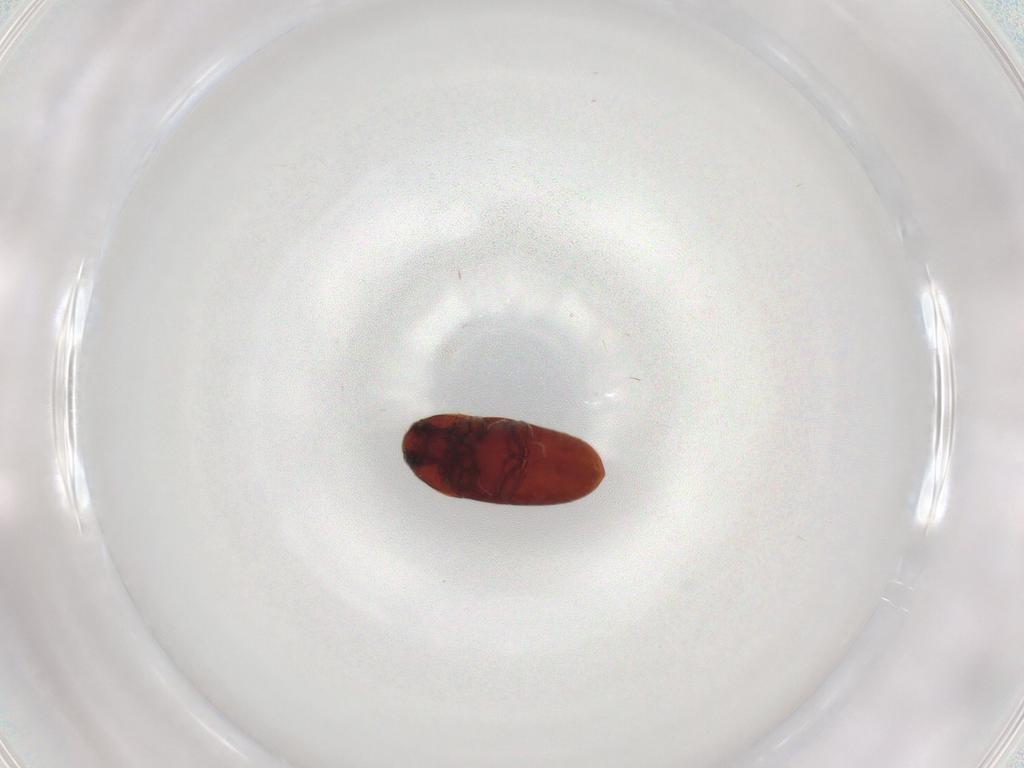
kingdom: Animalia
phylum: Arthropoda
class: Insecta
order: Coleoptera
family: Throscidae
